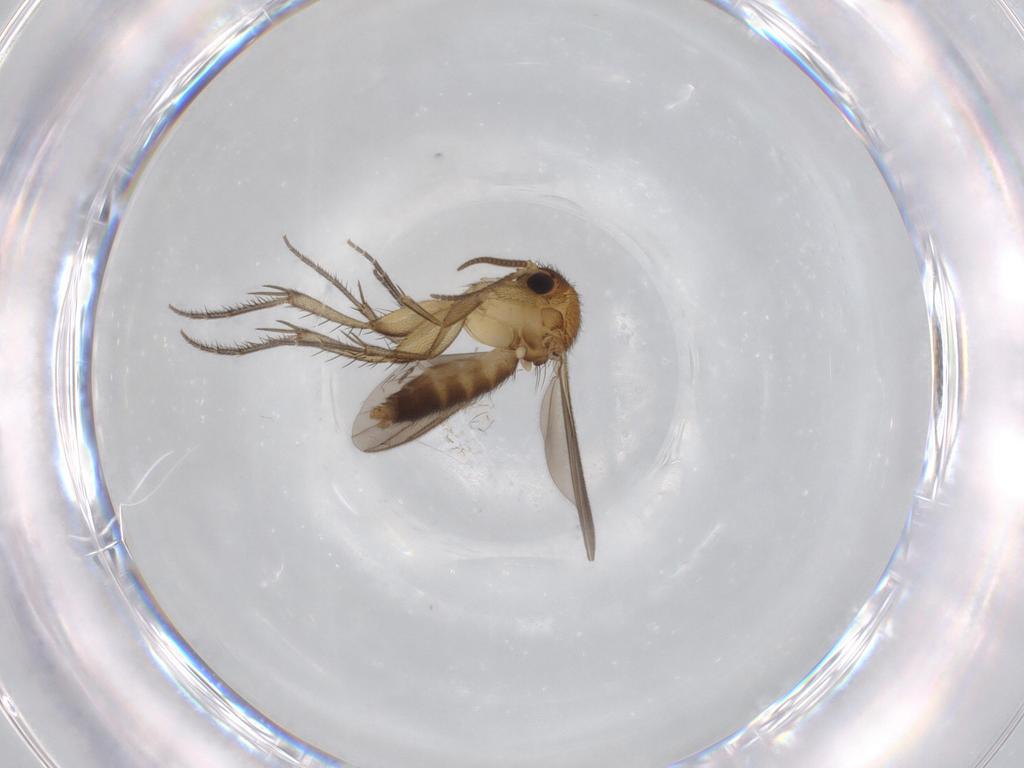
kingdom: Animalia
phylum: Arthropoda
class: Insecta
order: Diptera
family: Mycetophilidae
